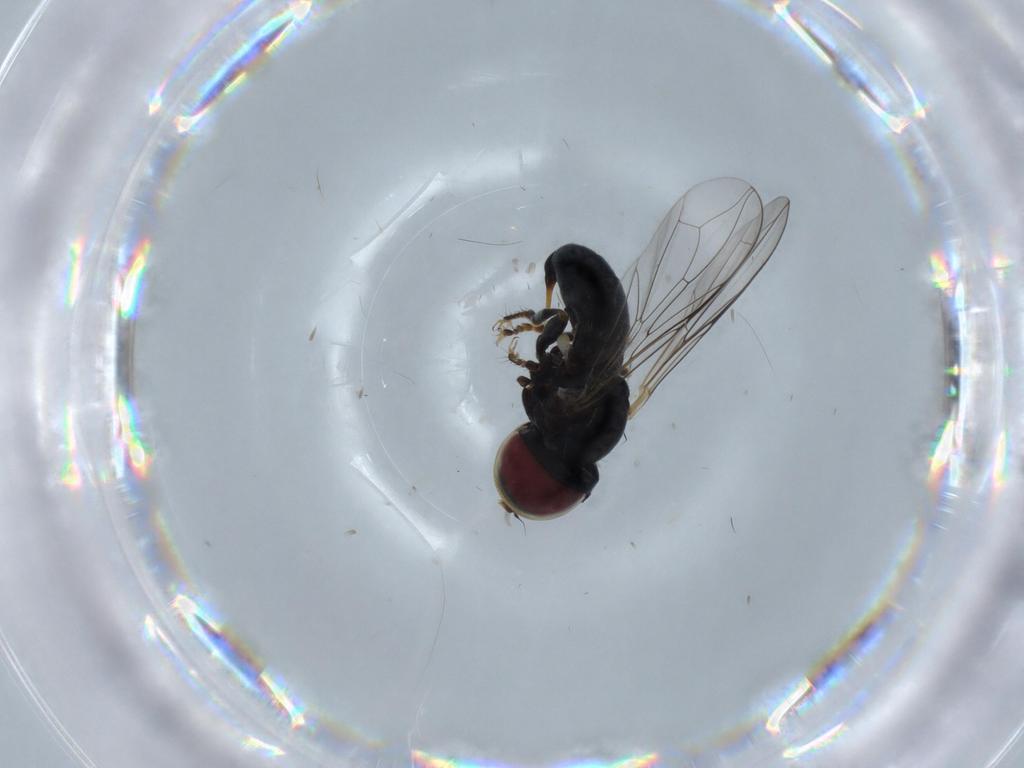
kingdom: Animalia
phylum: Arthropoda
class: Insecta
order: Diptera
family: Pipunculidae
